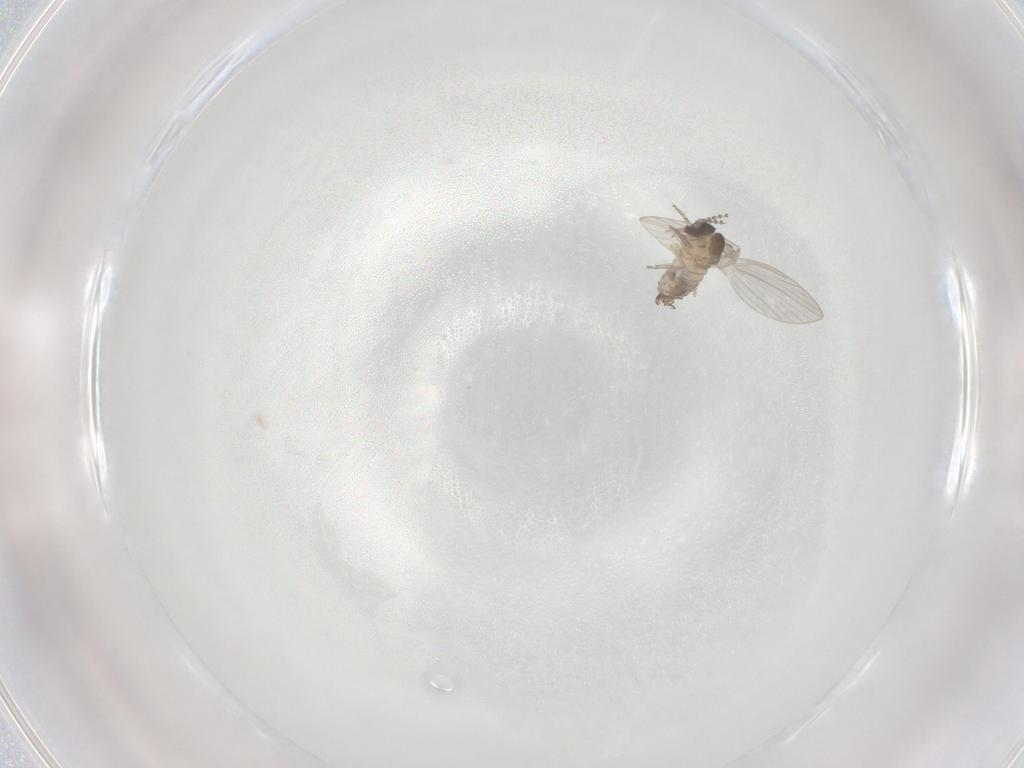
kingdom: Animalia
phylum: Arthropoda
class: Insecta
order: Diptera
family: Psychodidae
